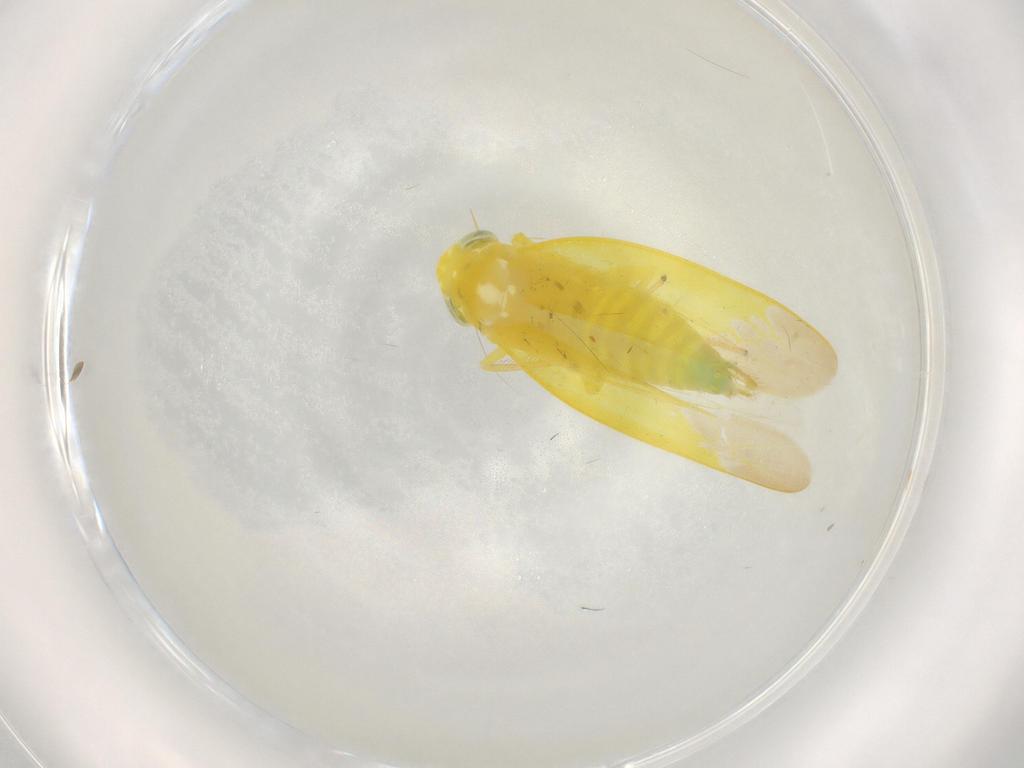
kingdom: Animalia
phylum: Arthropoda
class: Insecta
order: Hemiptera
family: Cicadellidae
